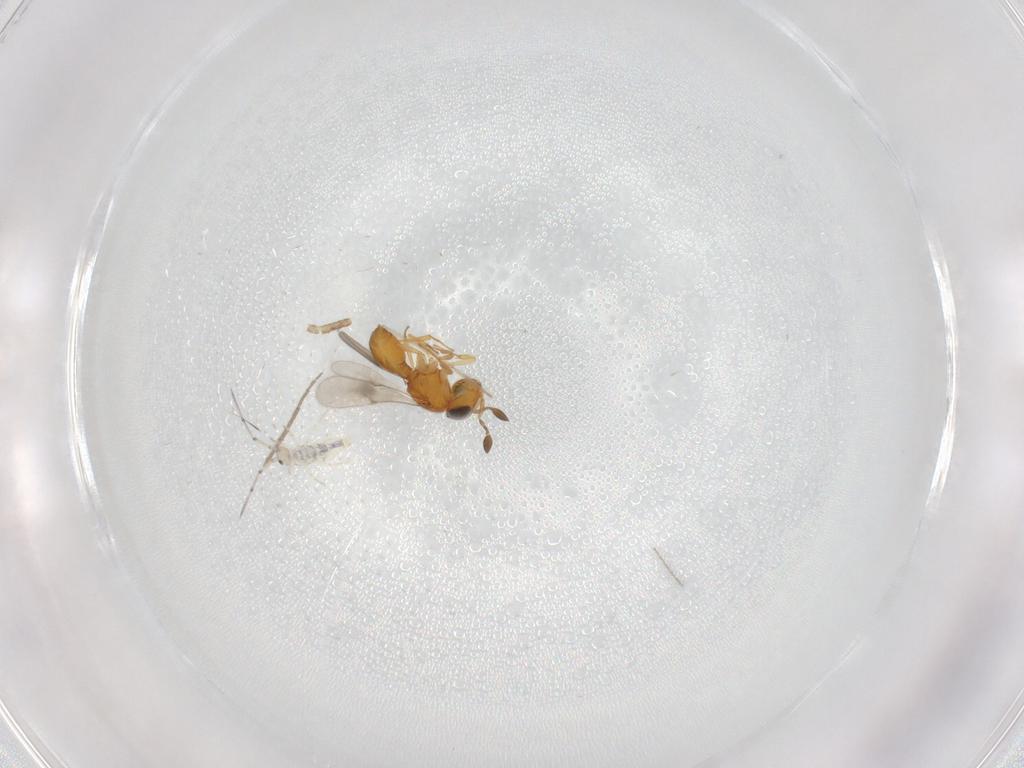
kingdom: Animalia
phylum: Arthropoda
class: Insecta
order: Hymenoptera
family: Scelionidae
